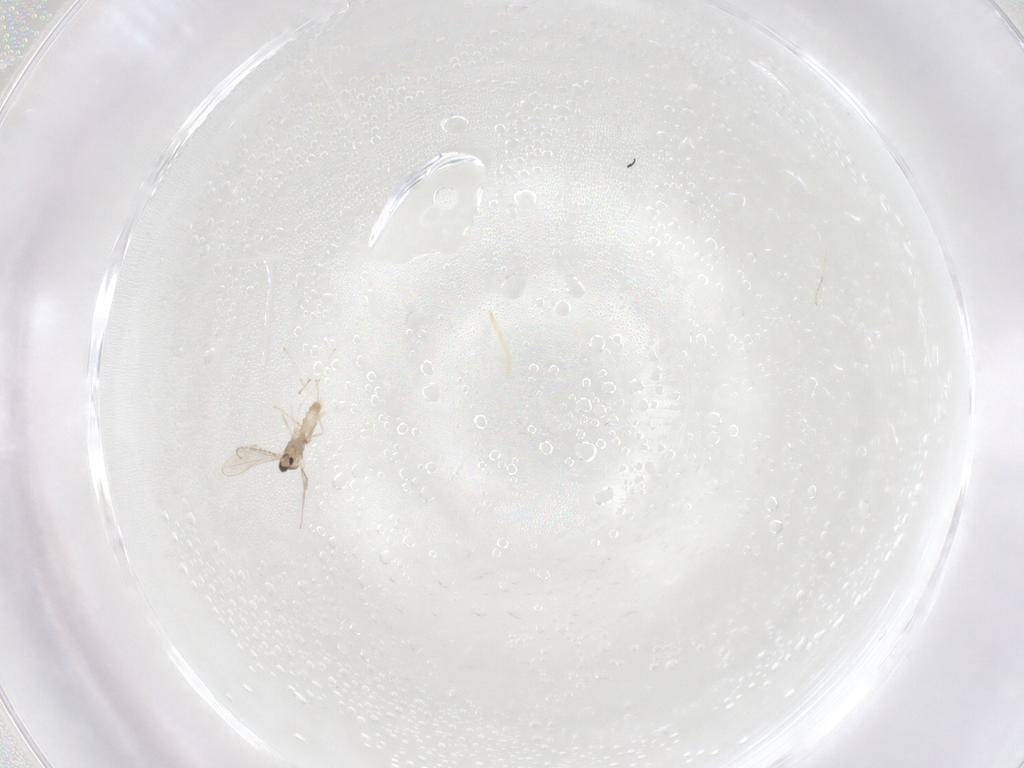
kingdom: Animalia
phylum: Arthropoda
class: Insecta
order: Diptera
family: Cecidomyiidae
